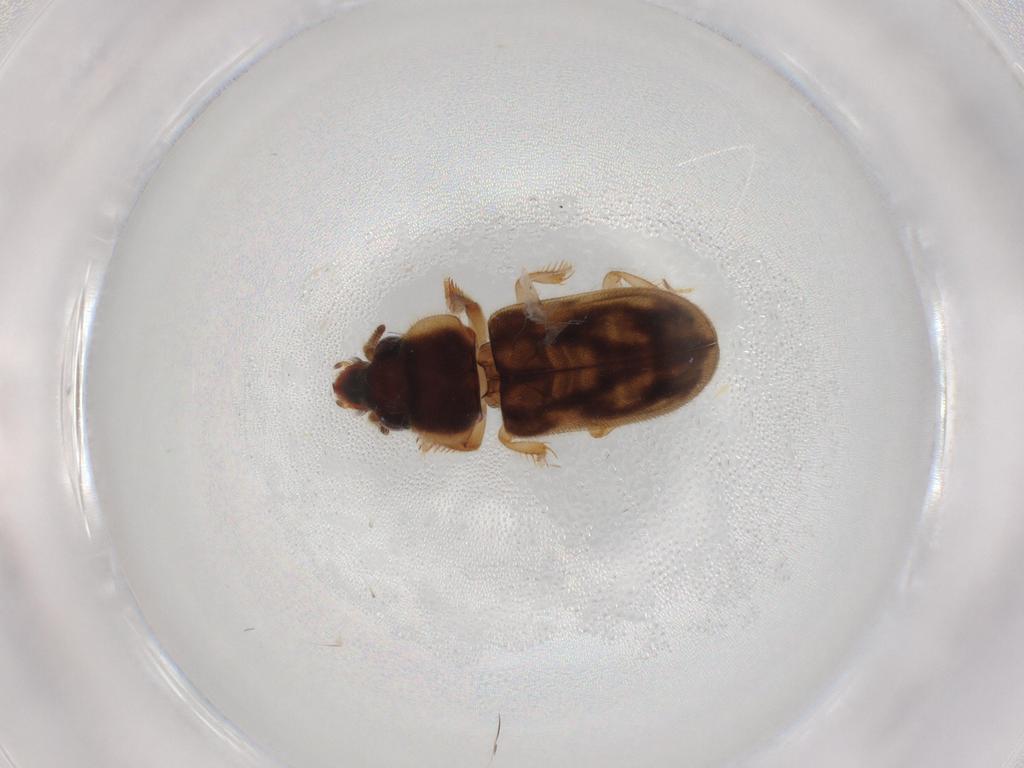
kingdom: Animalia
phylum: Arthropoda
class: Insecta
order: Coleoptera
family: Heteroceridae
